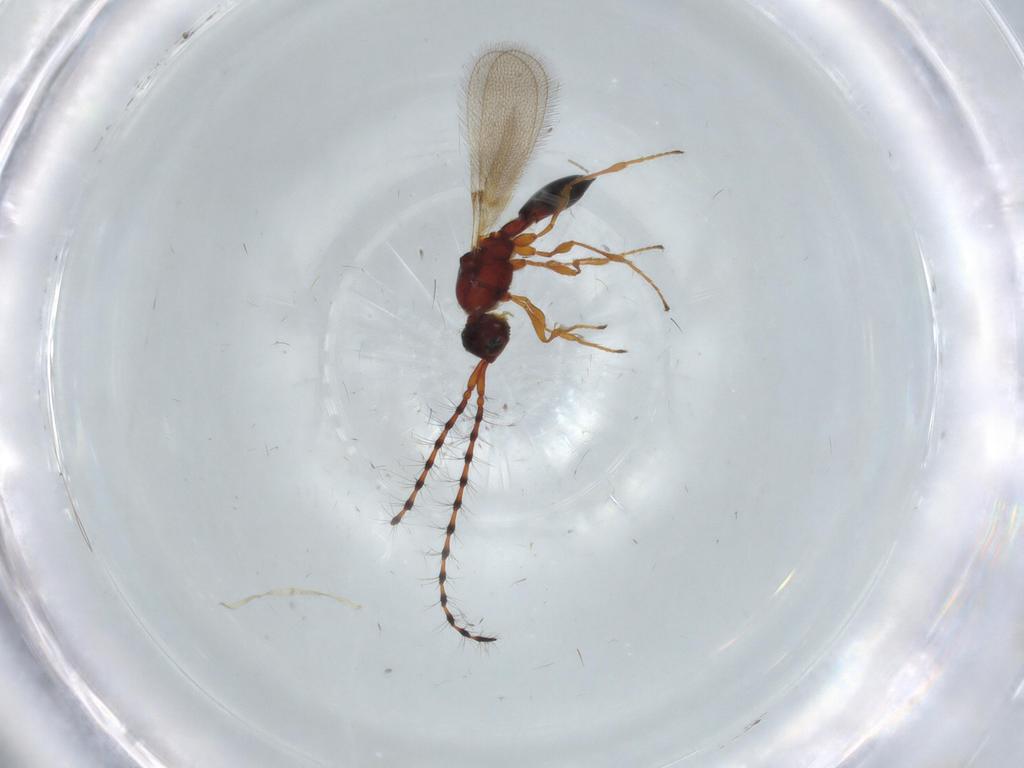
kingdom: Animalia
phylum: Arthropoda
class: Insecta
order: Hymenoptera
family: Diapriidae
